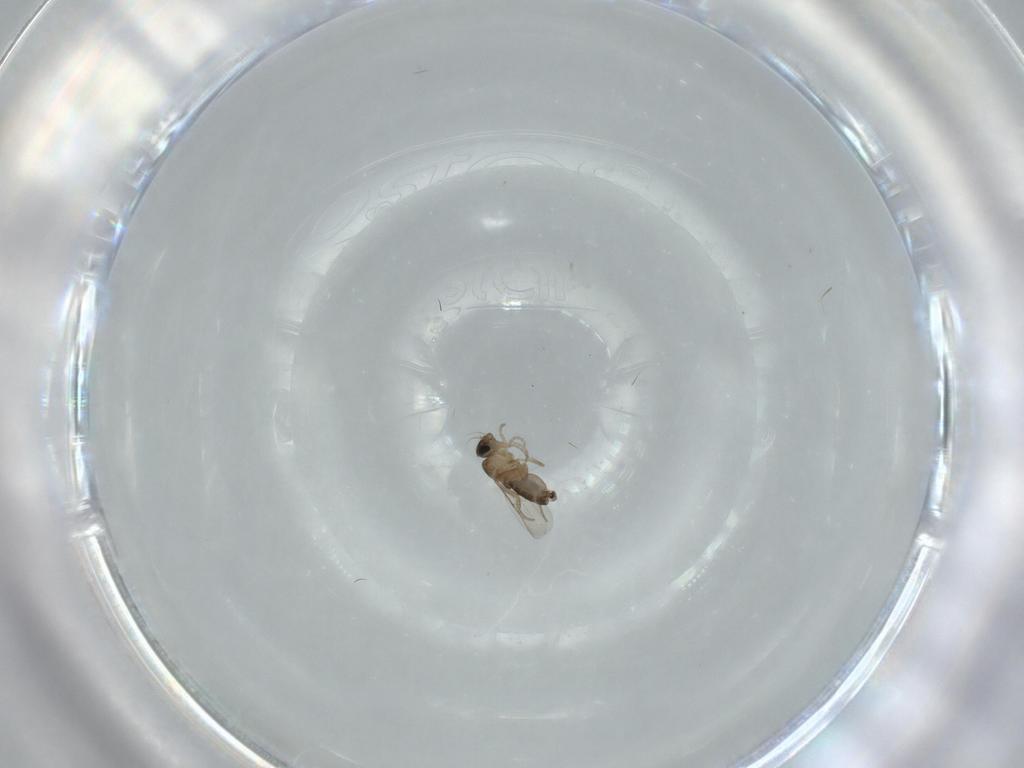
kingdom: Animalia
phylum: Arthropoda
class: Insecta
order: Diptera
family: Phoridae
